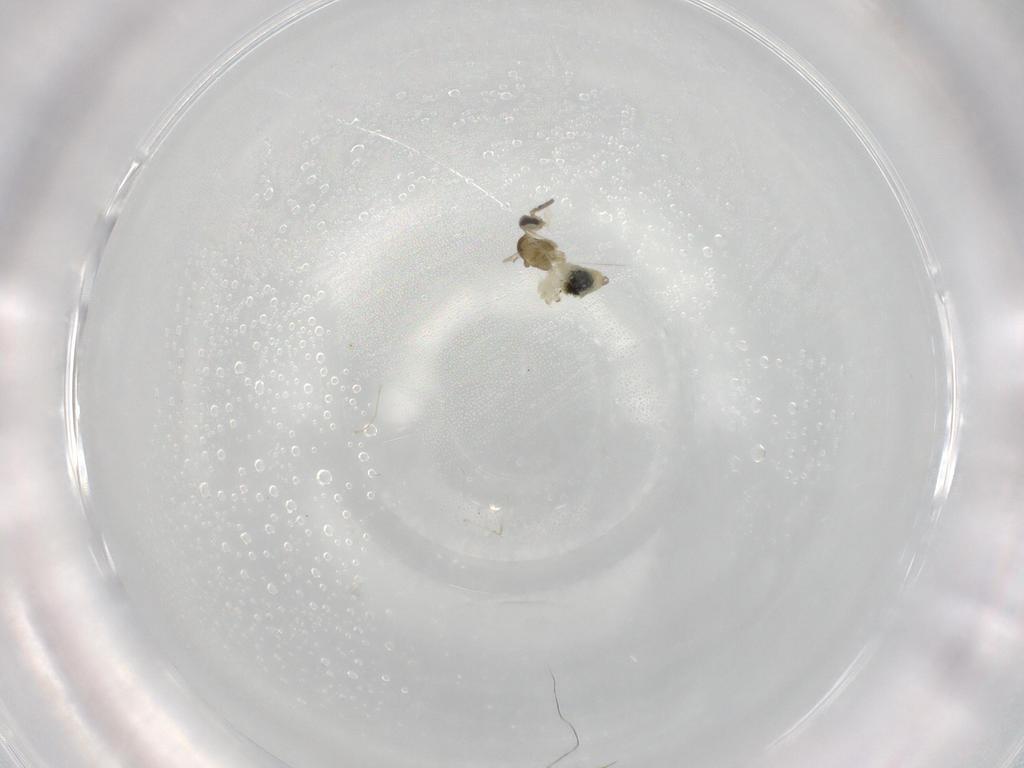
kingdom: Animalia
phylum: Arthropoda
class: Insecta
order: Diptera
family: Cecidomyiidae
